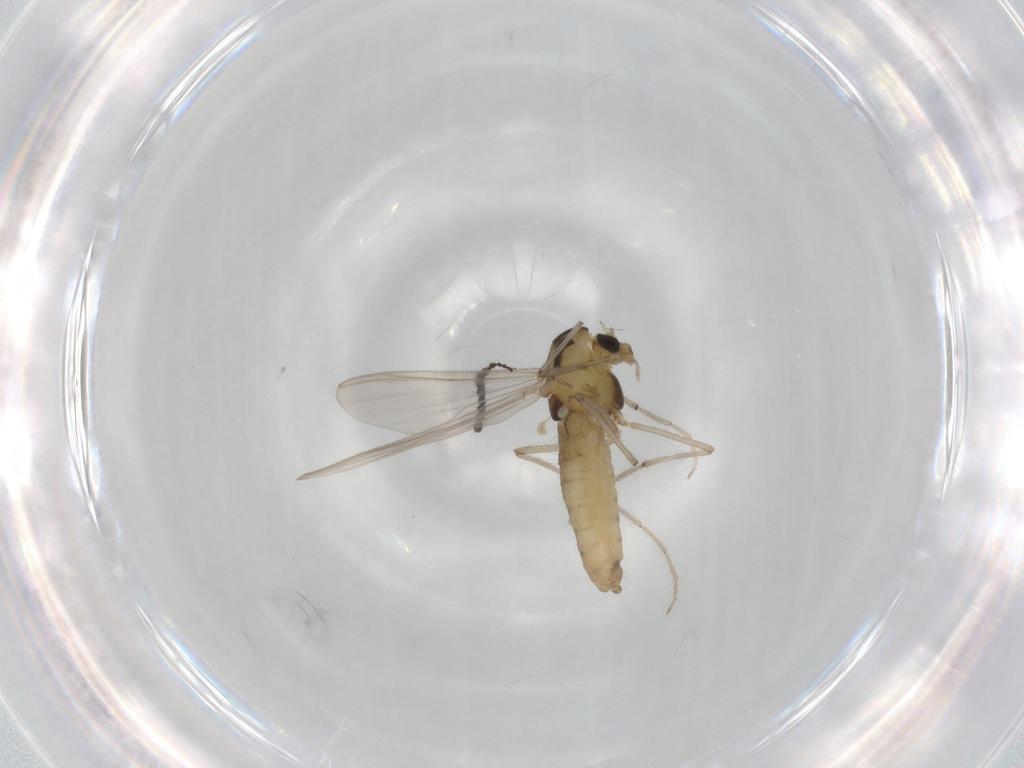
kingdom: Animalia
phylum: Arthropoda
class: Insecta
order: Diptera
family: Chironomidae
